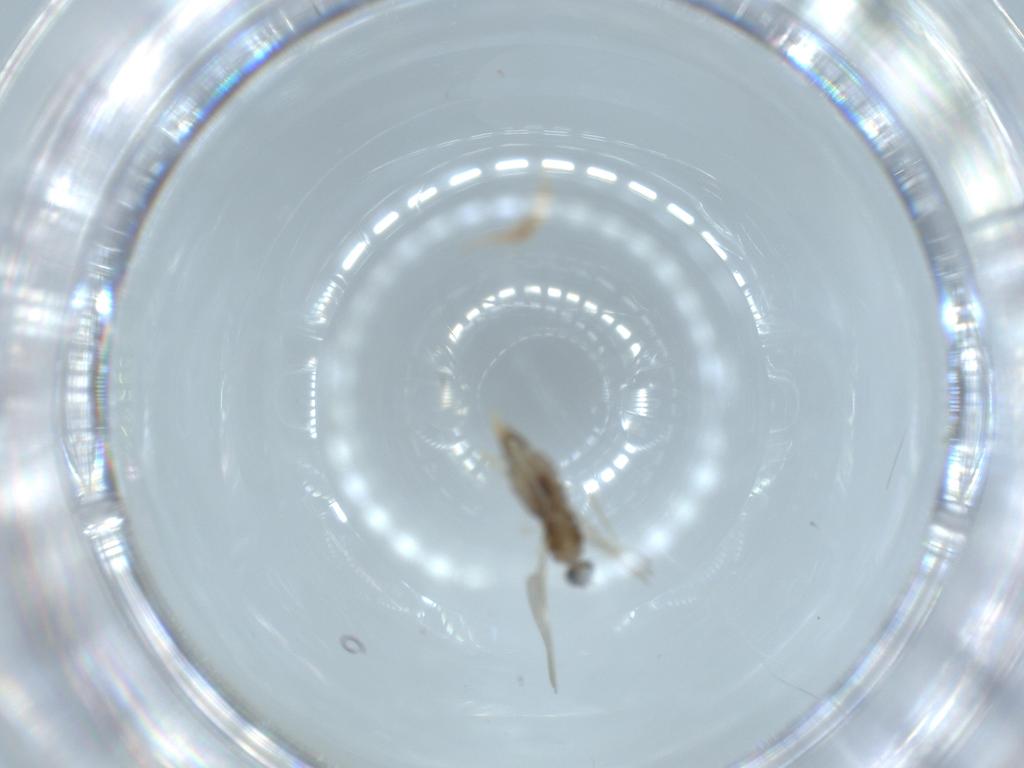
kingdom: Animalia
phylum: Arthropoda
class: Insecta
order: Diptera
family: Cecidomyiidae
